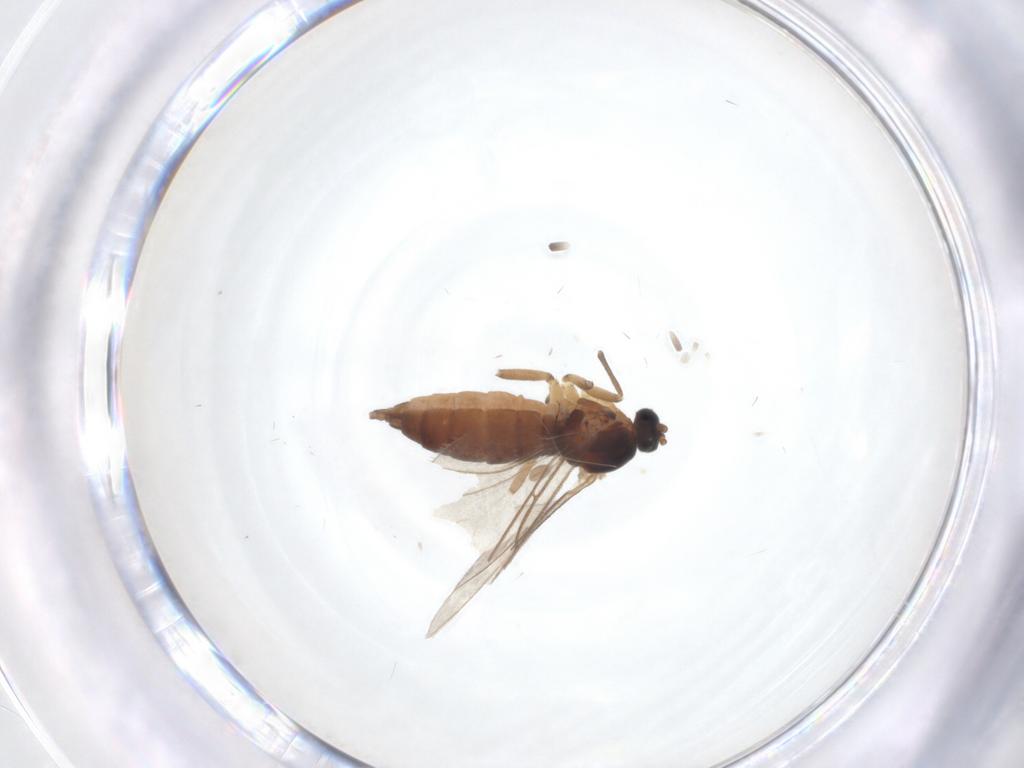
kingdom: Animalia
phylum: Arthropoda
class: Insecta
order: Diptera
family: Sciaridae
